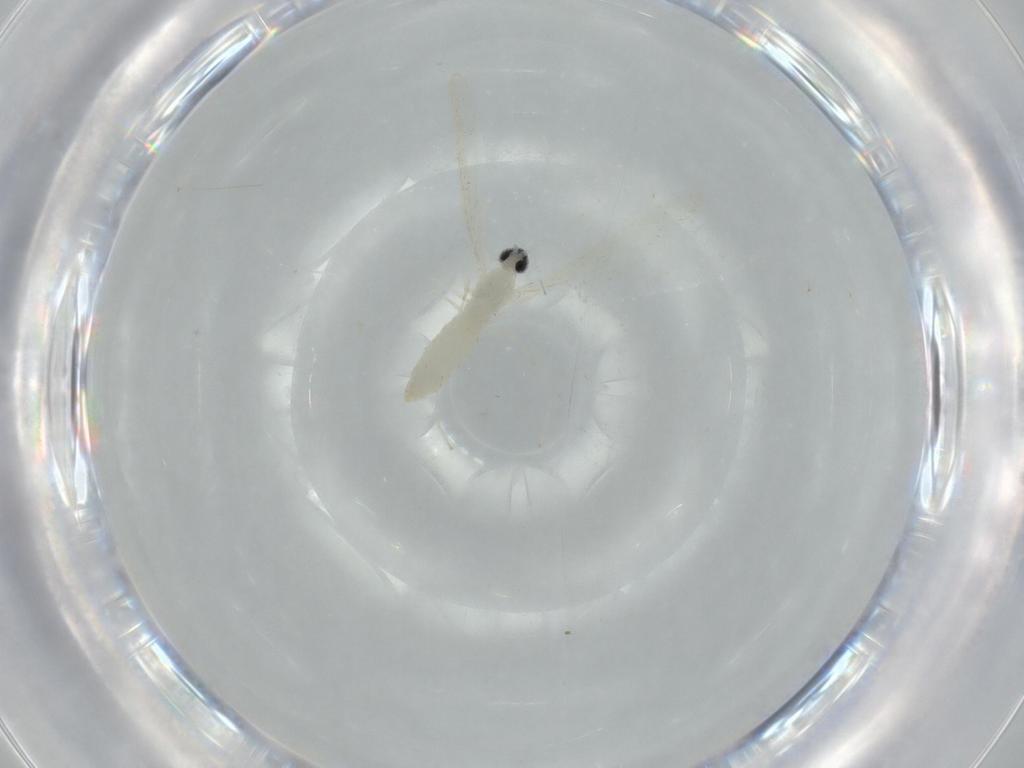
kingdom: Animalia
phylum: Arthropoda
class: Insecta
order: Diptera
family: Cecidomyiidae
